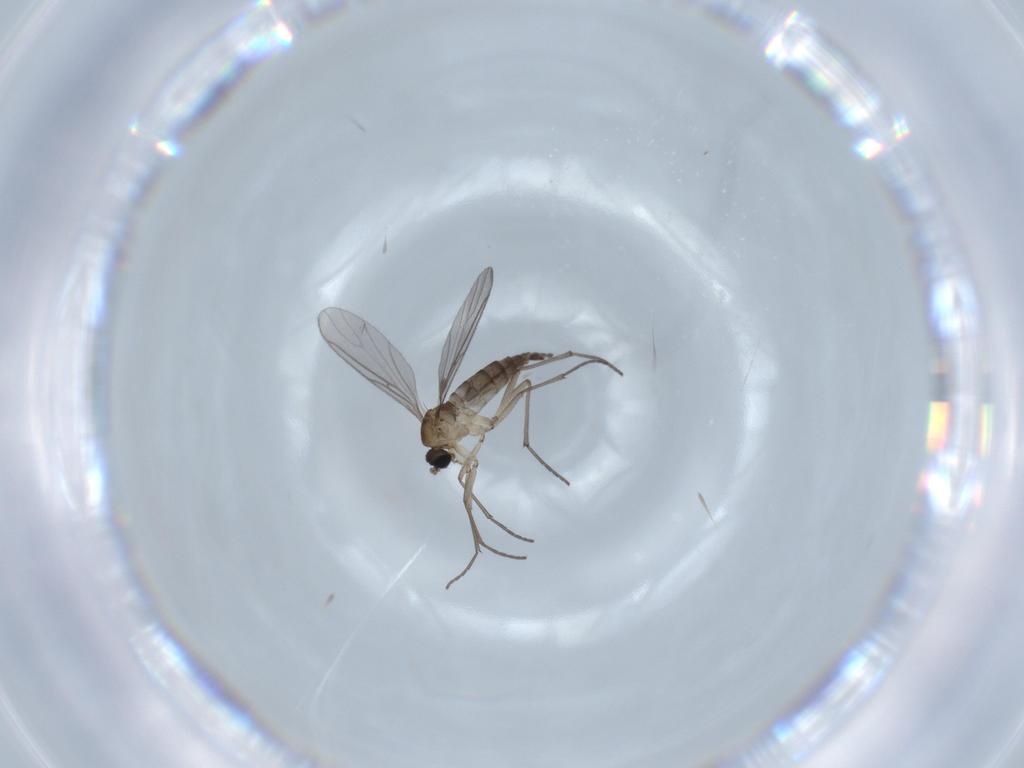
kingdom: Animalia
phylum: Arthropoda
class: Insecta
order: Diptera
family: Sciaridae
